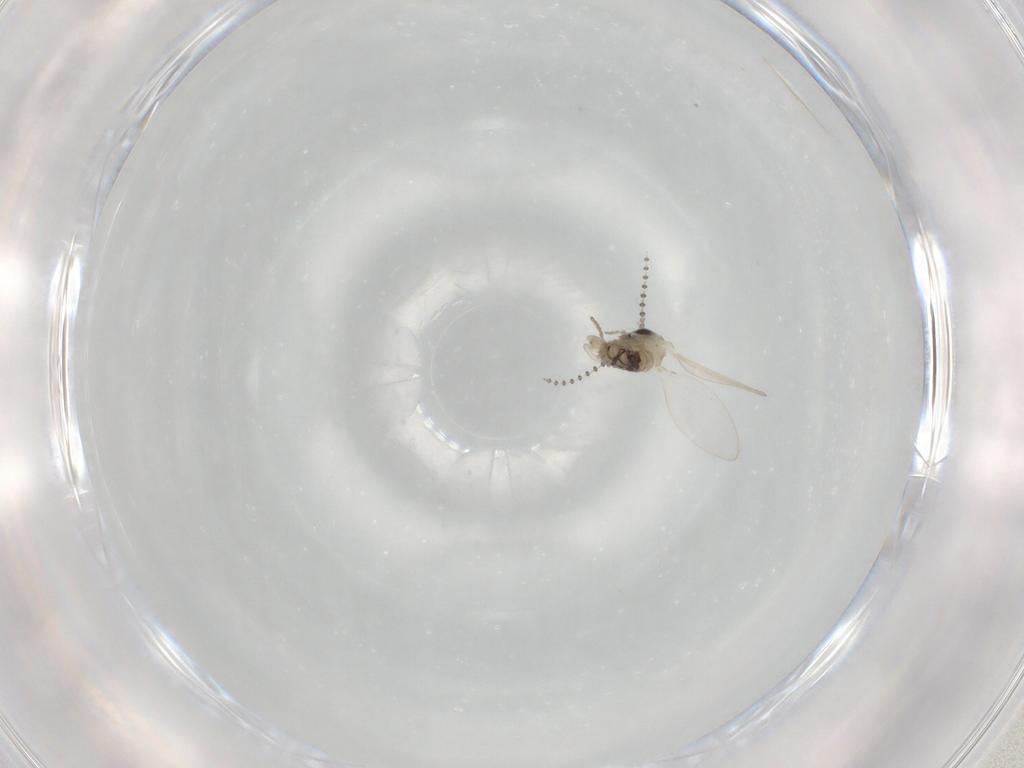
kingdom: Animalia
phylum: Arthropoda
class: Insecta
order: Diptera
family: Psychodidae
